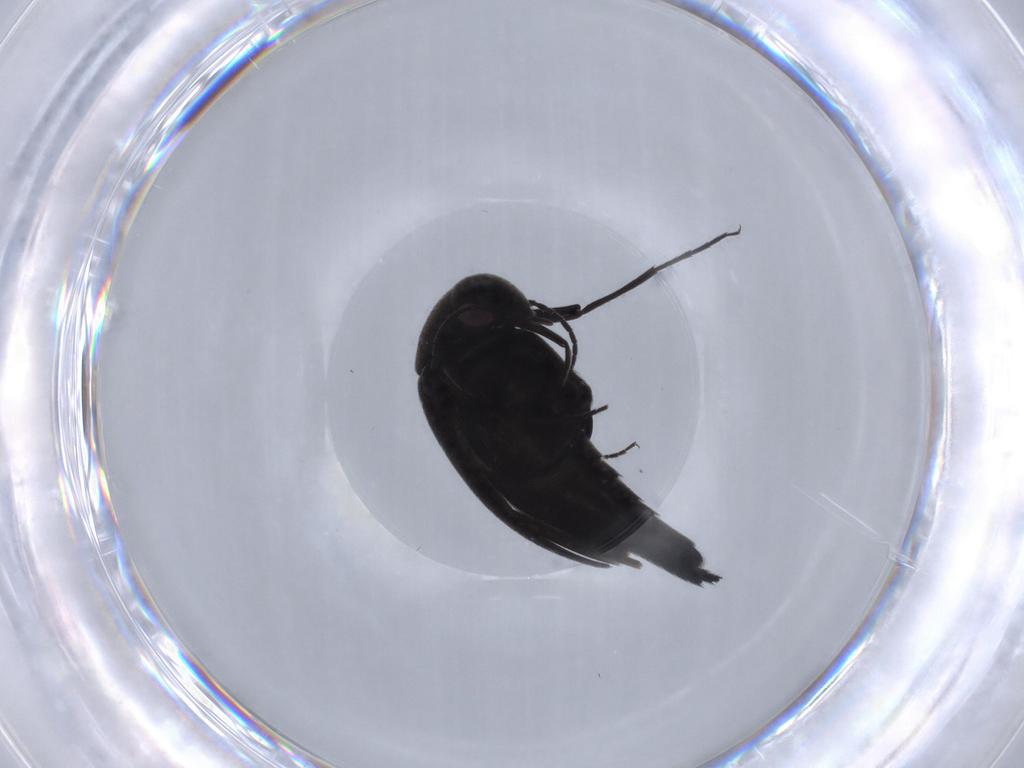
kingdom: Animalia
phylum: Arthropoda
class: Insecta
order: Coleoptera
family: Mordellidae
